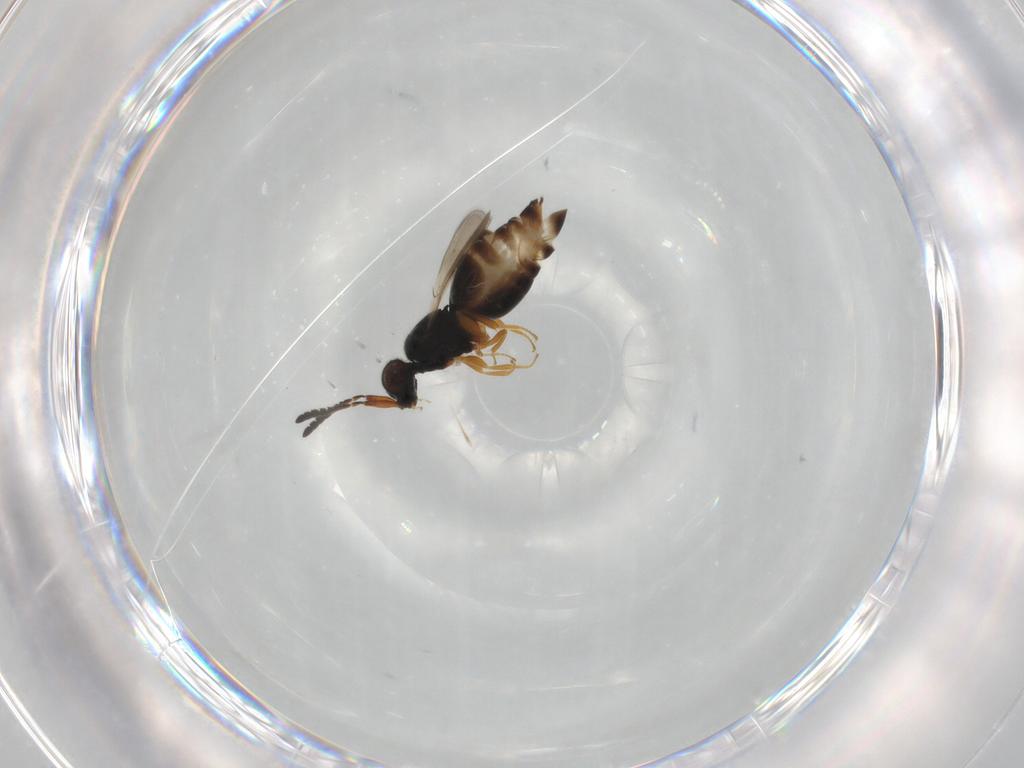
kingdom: Animalia
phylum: Arthropoda
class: Insecta
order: Hymenoptera
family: Ceraphronidae
